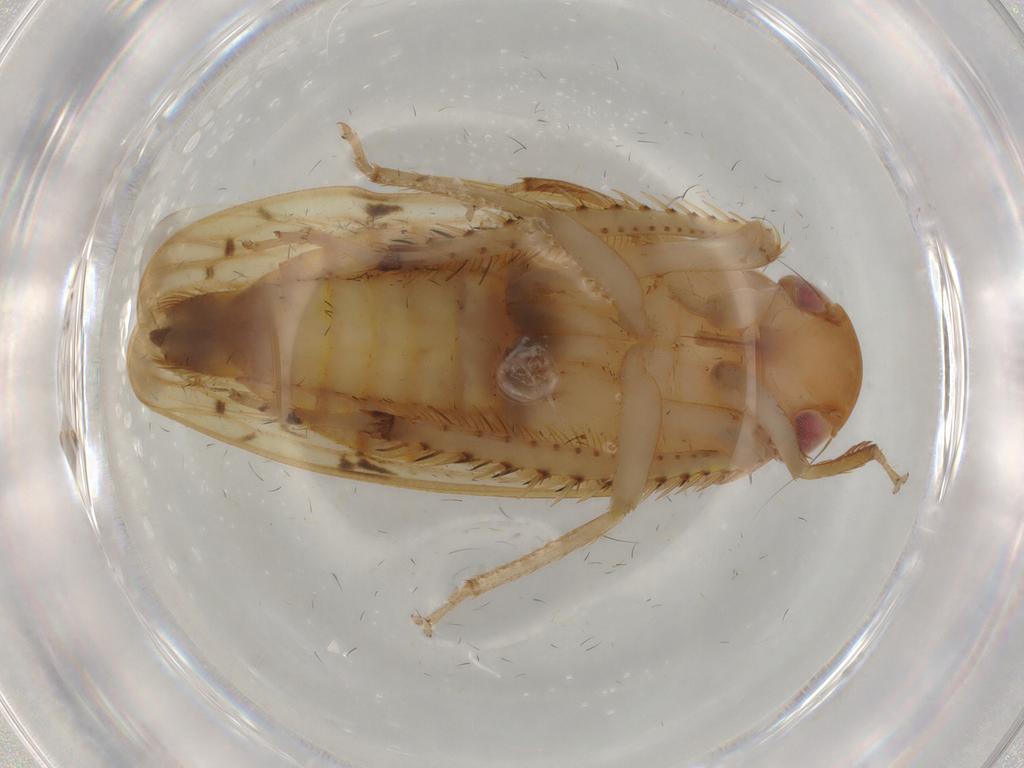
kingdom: Animalia
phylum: Arthropoda
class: Insecta
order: Hemiptera
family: Cicadellidae
